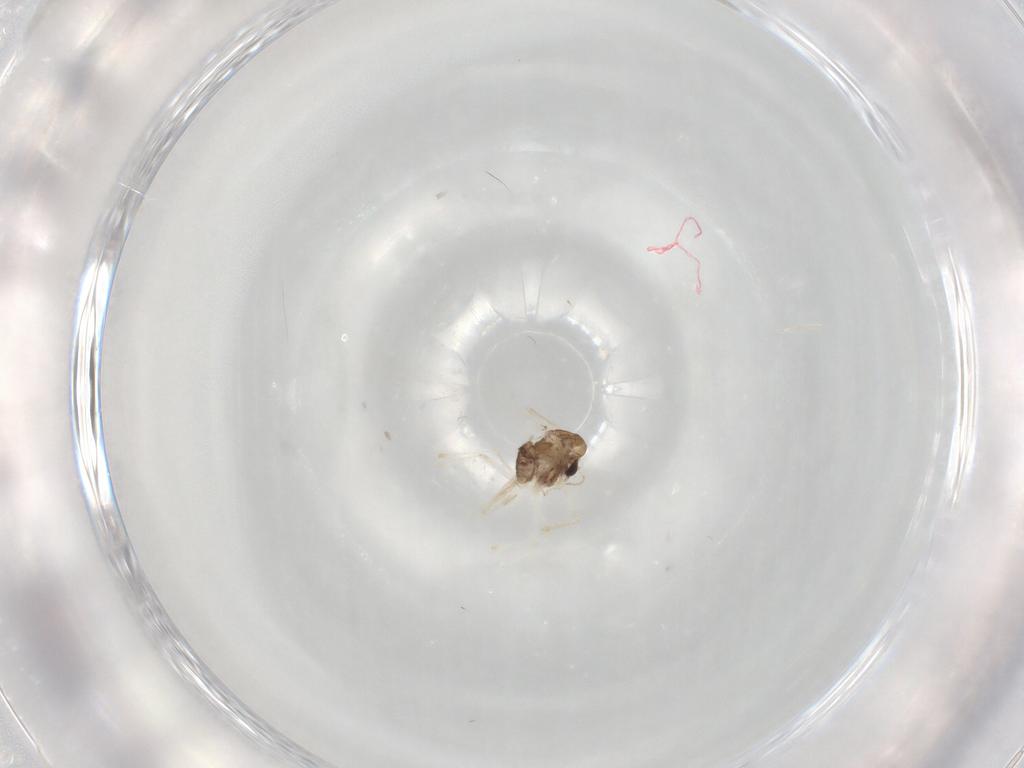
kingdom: Animalia
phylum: Arthropoda
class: Insecta
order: Diptera
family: Chironomidae
